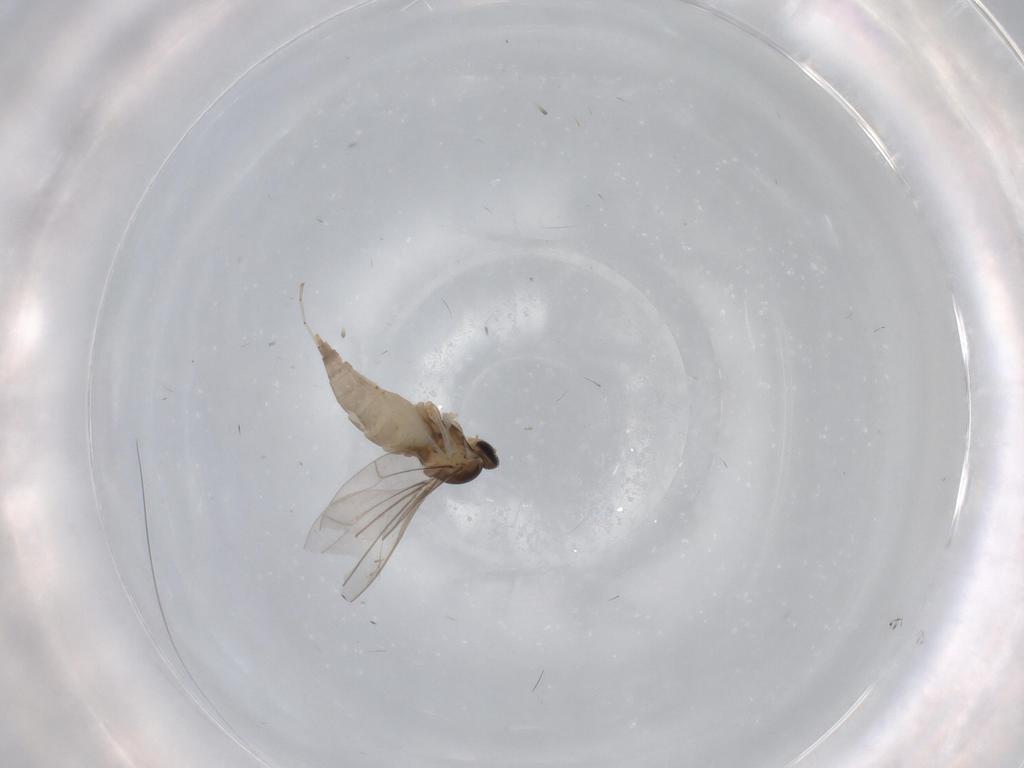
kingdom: Animalia
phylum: Arthropoda
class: Insecta
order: Diptera
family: Cecidomyiidae
